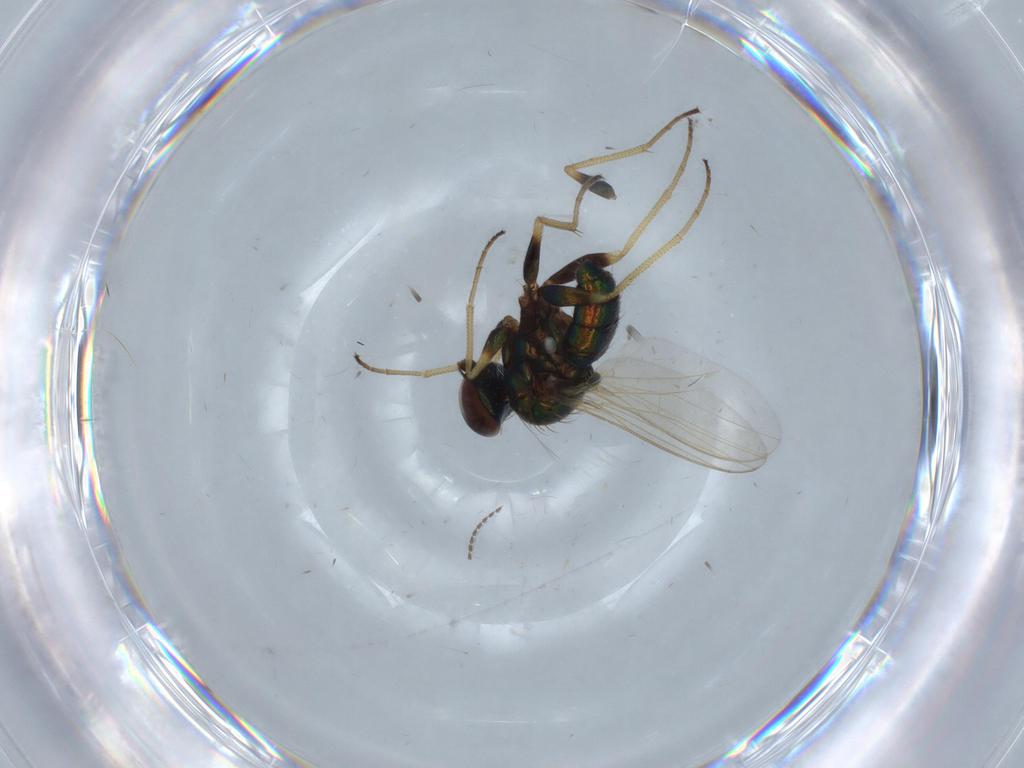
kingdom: Animalia
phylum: Arthropoda
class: Insecta
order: Diptera
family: Dolichopodidae
